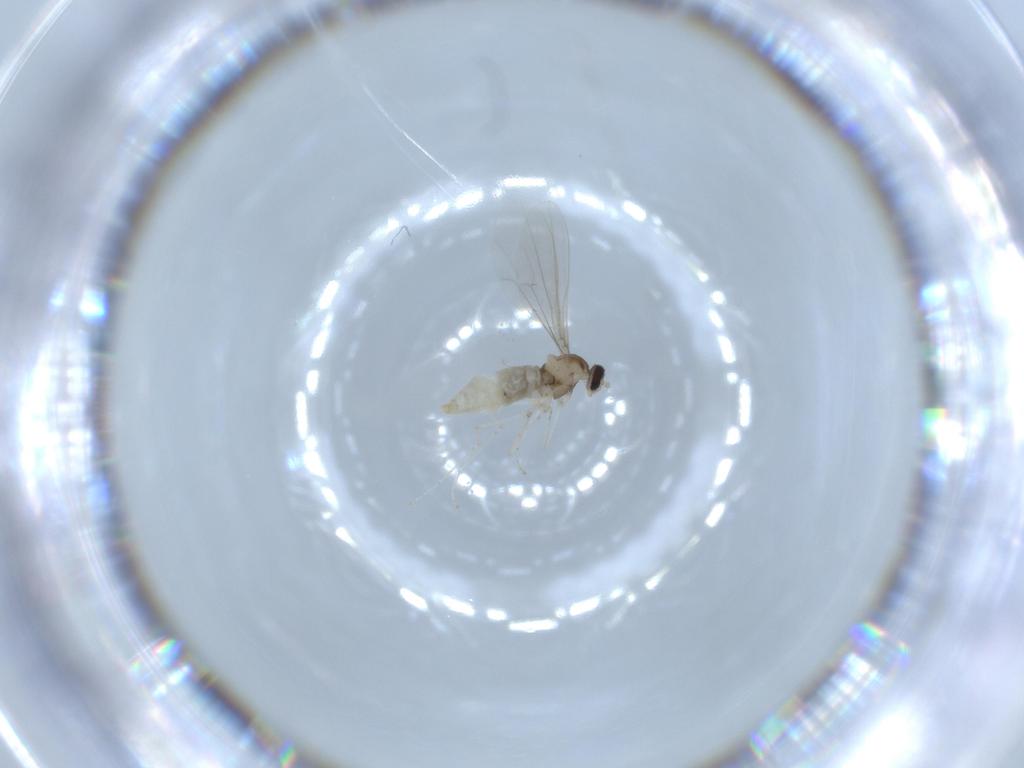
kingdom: Animalia
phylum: Arthropoda
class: Insecta
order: Diptera
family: Cecidomyiidae
